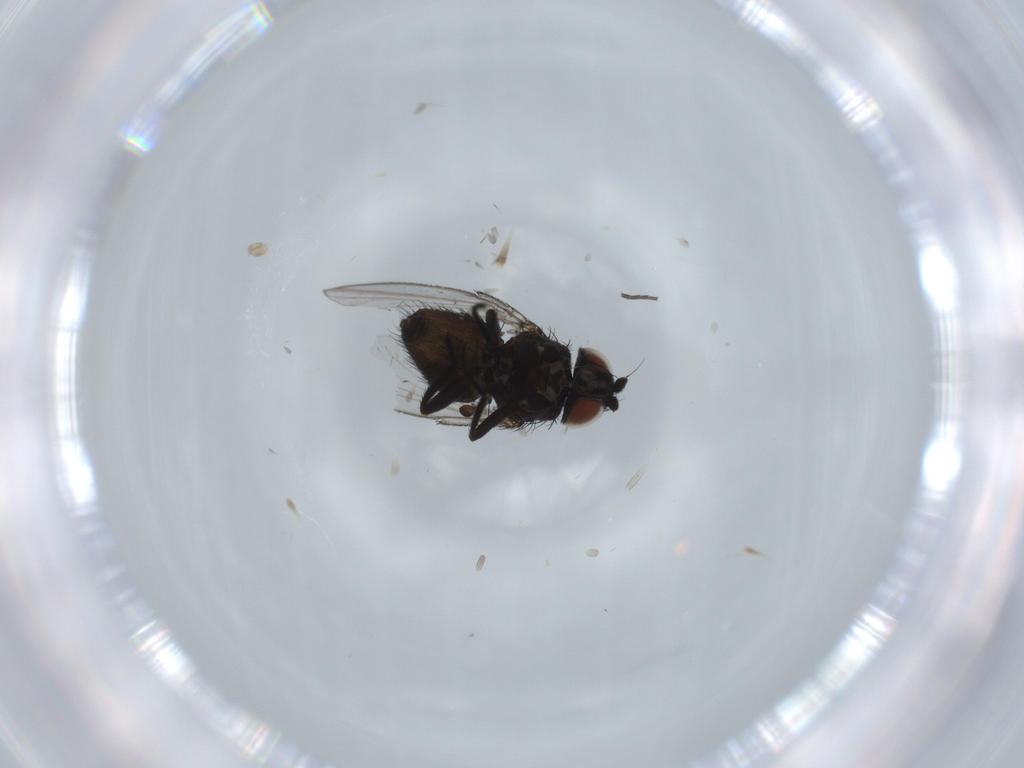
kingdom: Animalia
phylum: Arthropoda
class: Insecta
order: Diptera
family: Milichiidae
